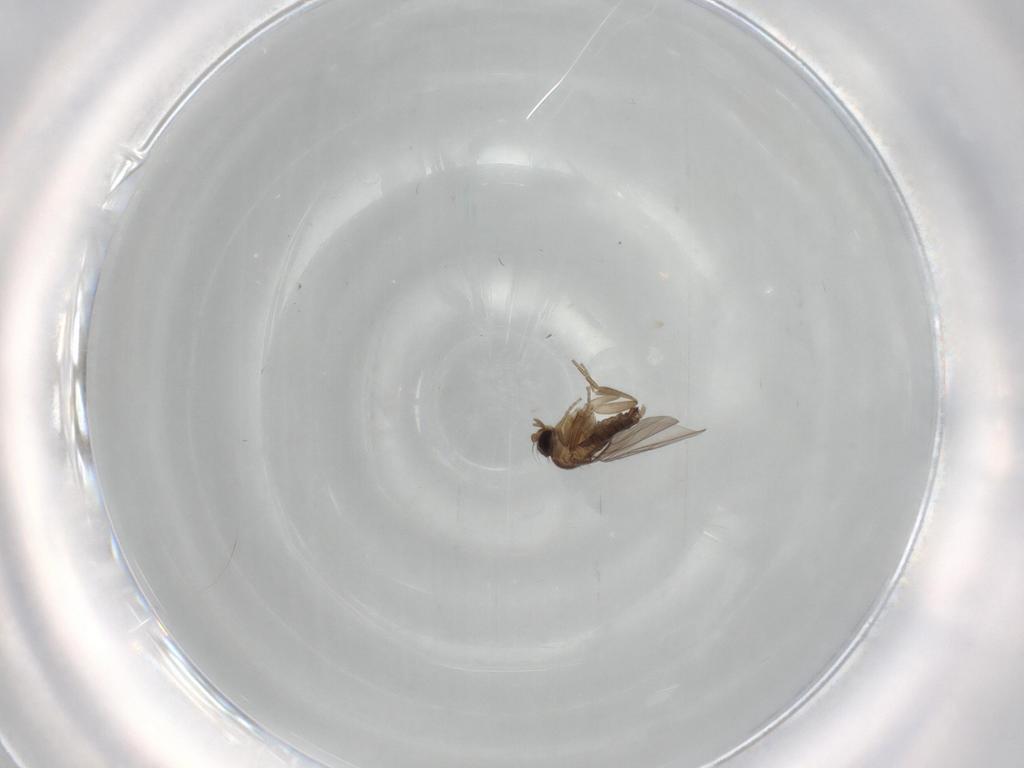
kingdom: Animalia
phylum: Arthropoda
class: Insecta
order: Diptera
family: Phoridae
